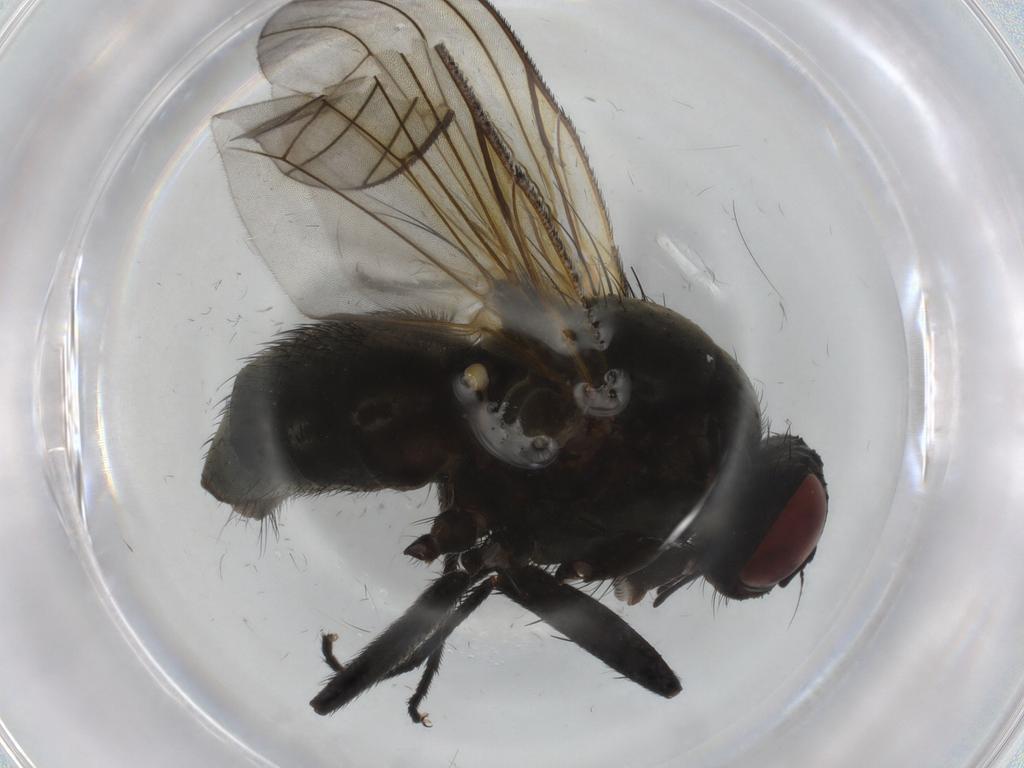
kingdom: Animalia
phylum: Arthropoda
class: Insecta
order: Diptera
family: Muscidae
